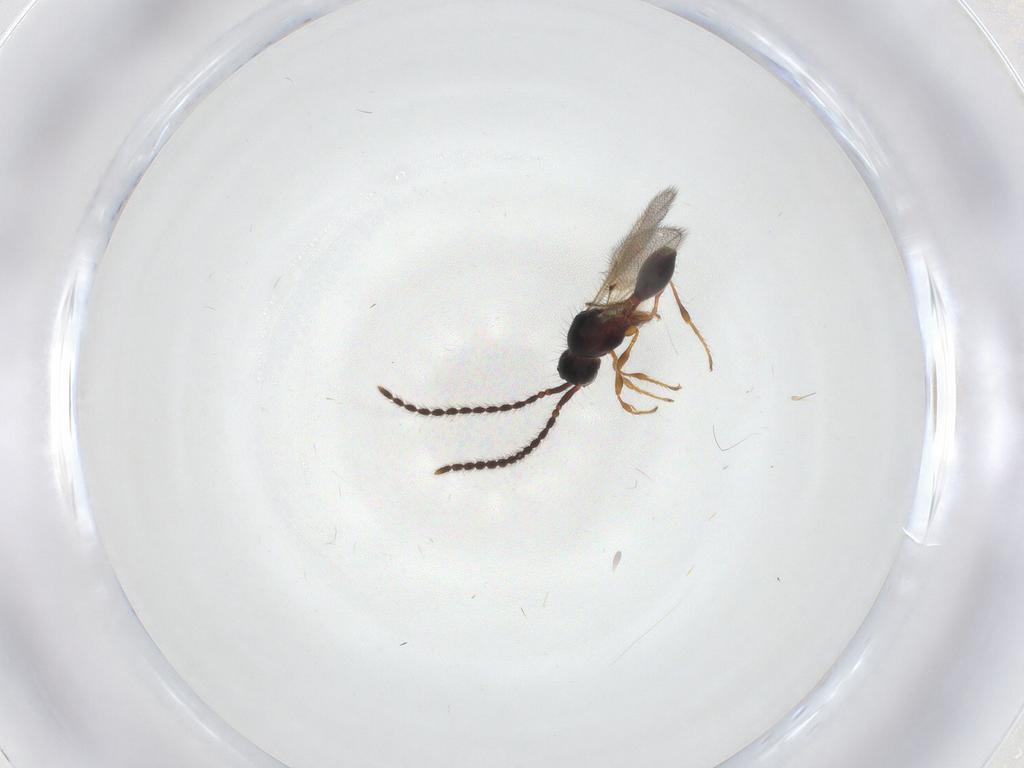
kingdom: Animalia
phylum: Arthropoda
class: Insecta
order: Hymenoptera
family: Diapriidae
